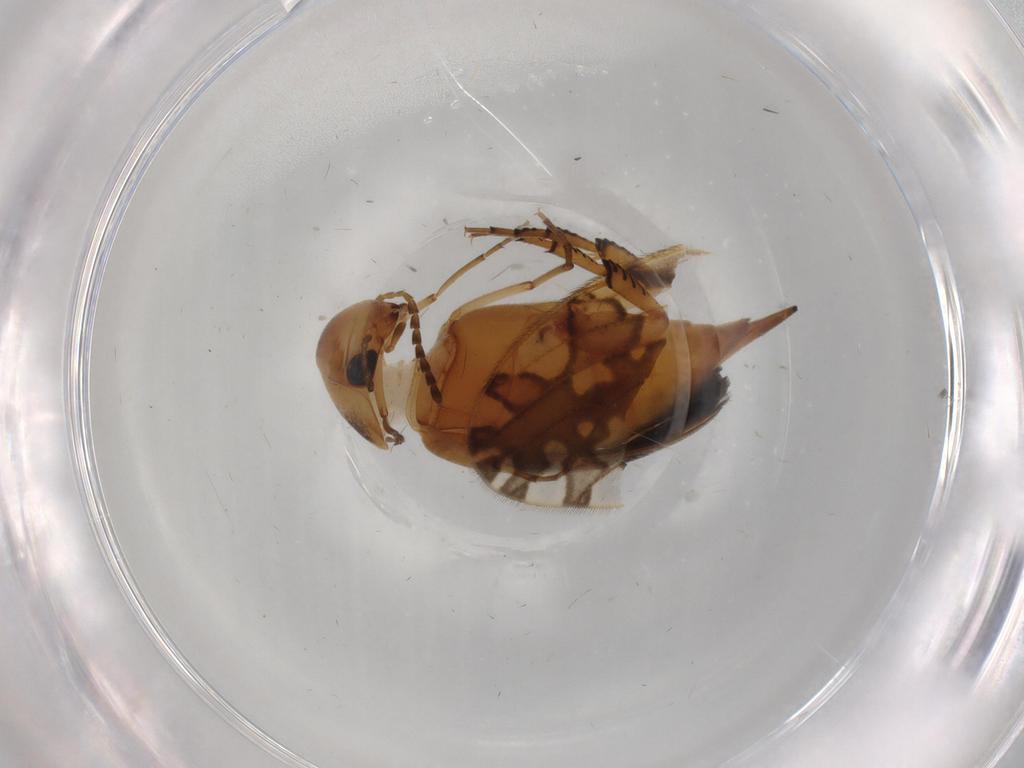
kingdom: Animalia
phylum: Arthropoda
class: Insecta
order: Coleoptera
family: Mordellidae
